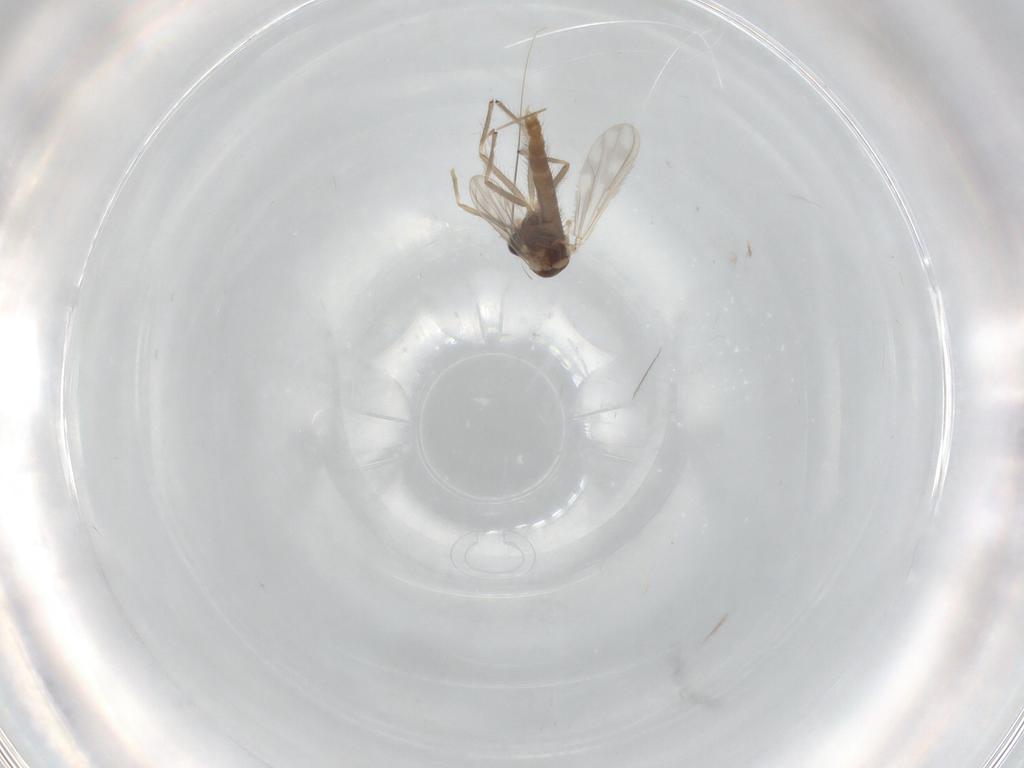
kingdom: Animalia
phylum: Arthropoda
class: Insecta
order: Diptera
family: Chironomidae
